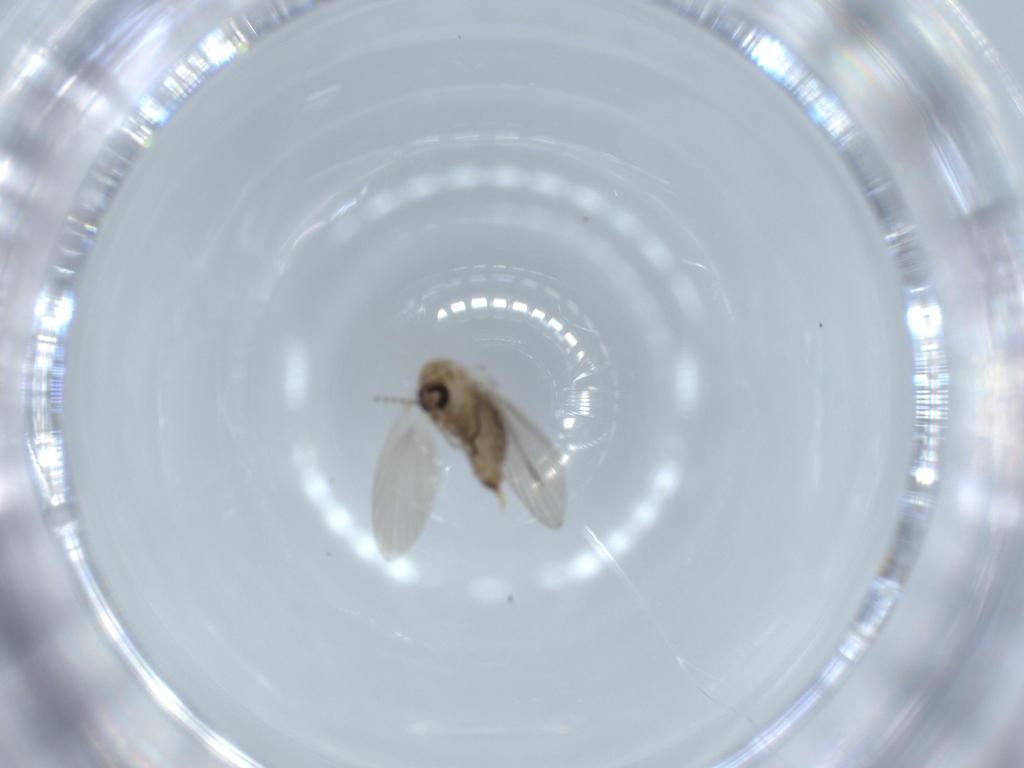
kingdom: Animalia
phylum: Arthropoda
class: Insecta
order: Diptera
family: Psychodidae
